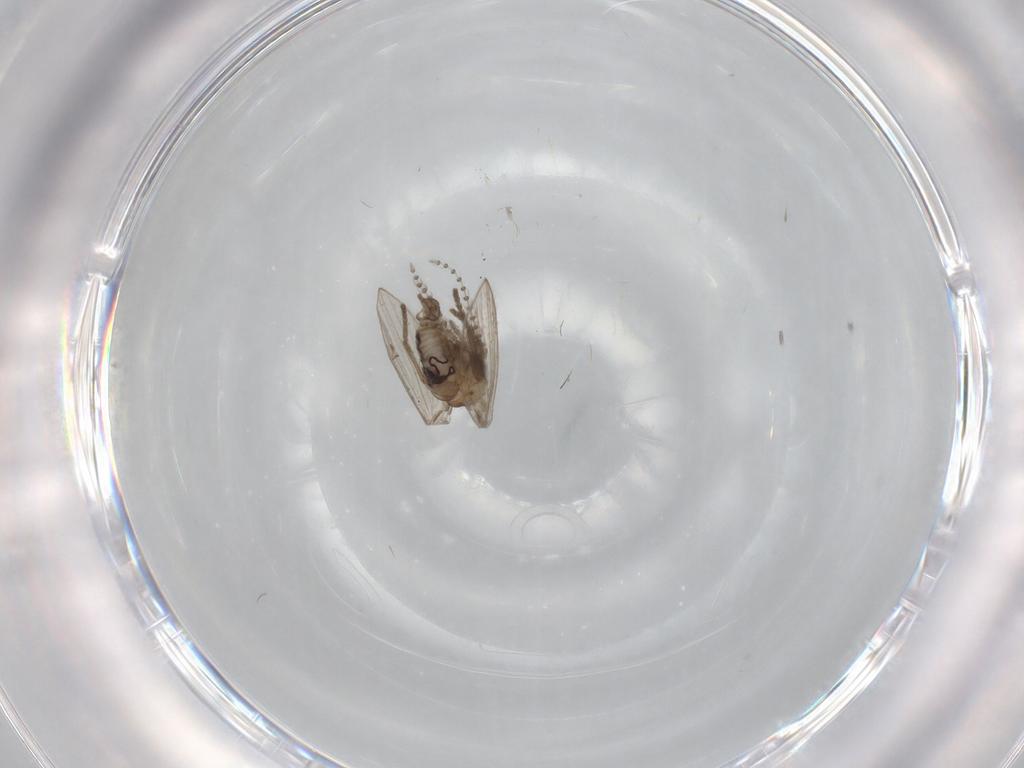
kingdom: Animalia
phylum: Arthropoda
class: Insecta
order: Diptera
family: Psychodidae
